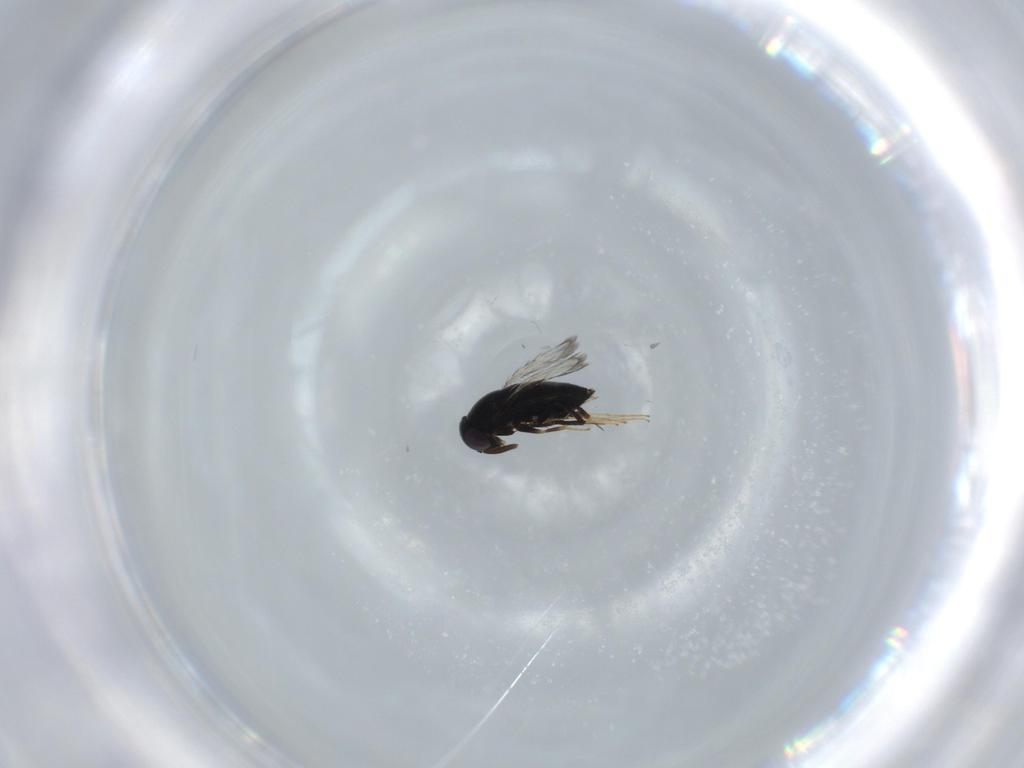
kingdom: Animalia
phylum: Arthropoda
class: Insecta
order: Hymenoptera
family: Signiphoridae
